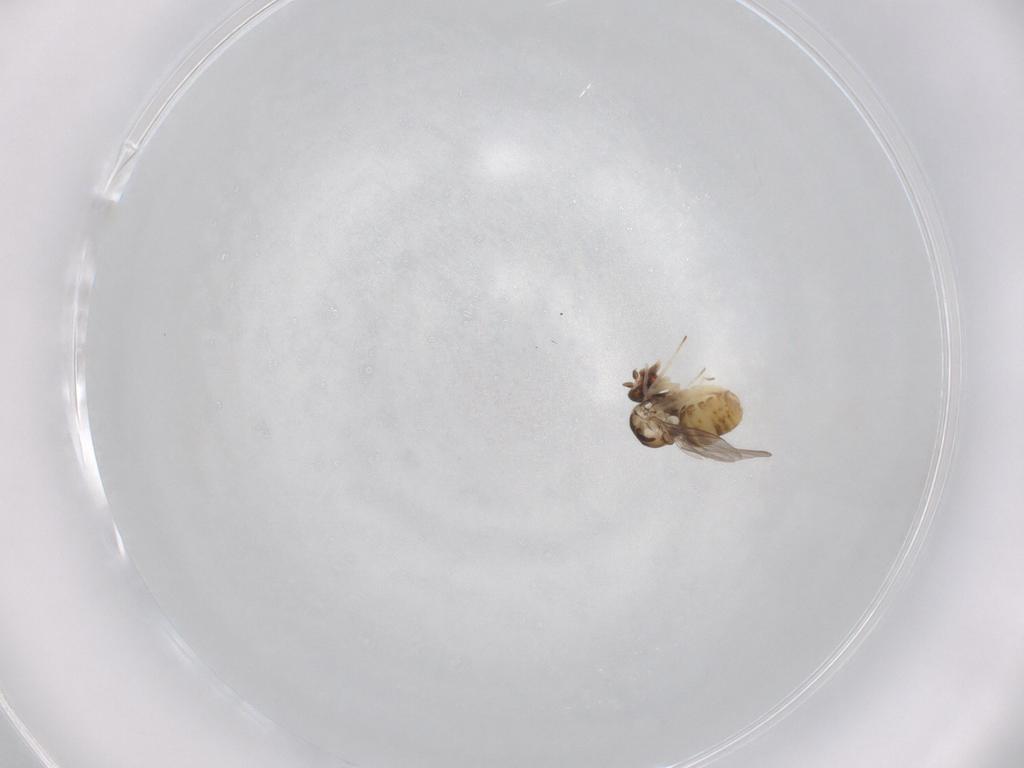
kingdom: Animalia
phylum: Arthropoda
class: Insecta
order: Diptera
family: Bombyliidae
